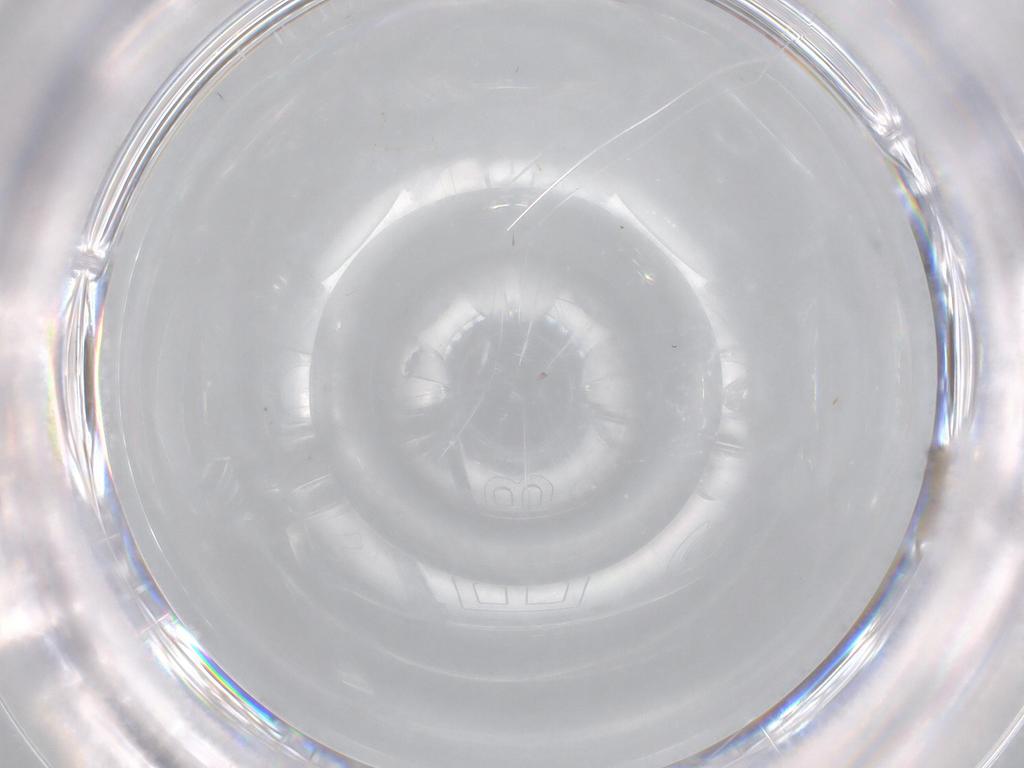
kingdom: Animalia
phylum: Arthropoda
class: Insecta
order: Diptera
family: Cecidomyiidae
